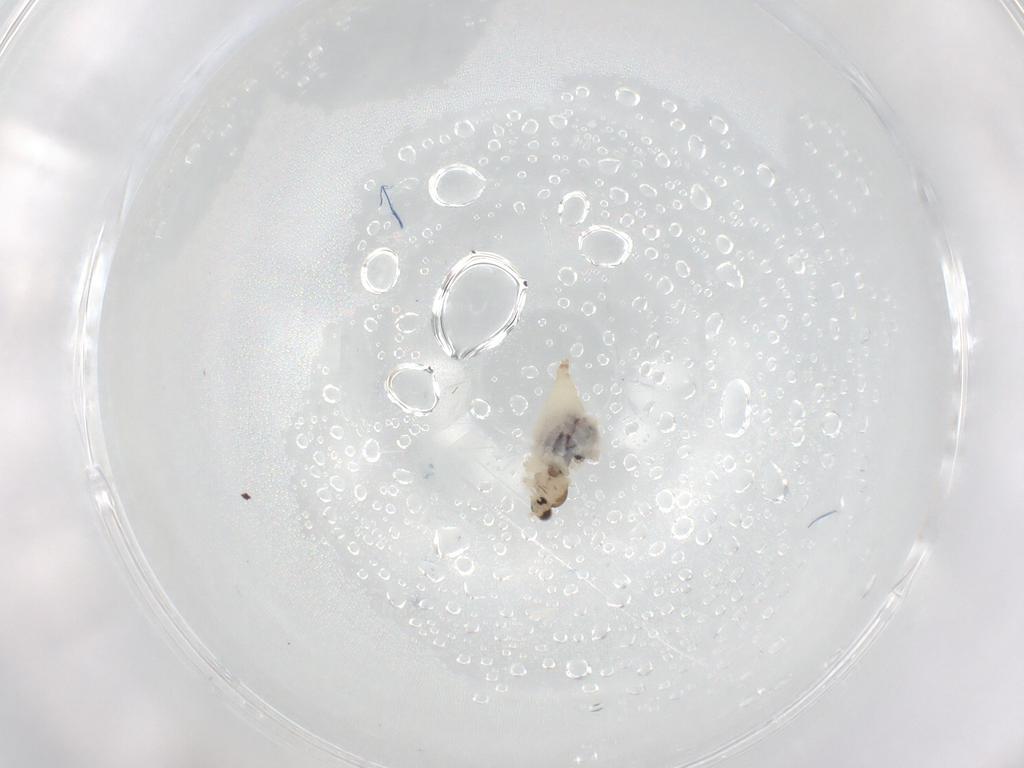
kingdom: Animalia
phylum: Arthropoda
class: Insecta
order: Diptera
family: Cecidomyiidae
